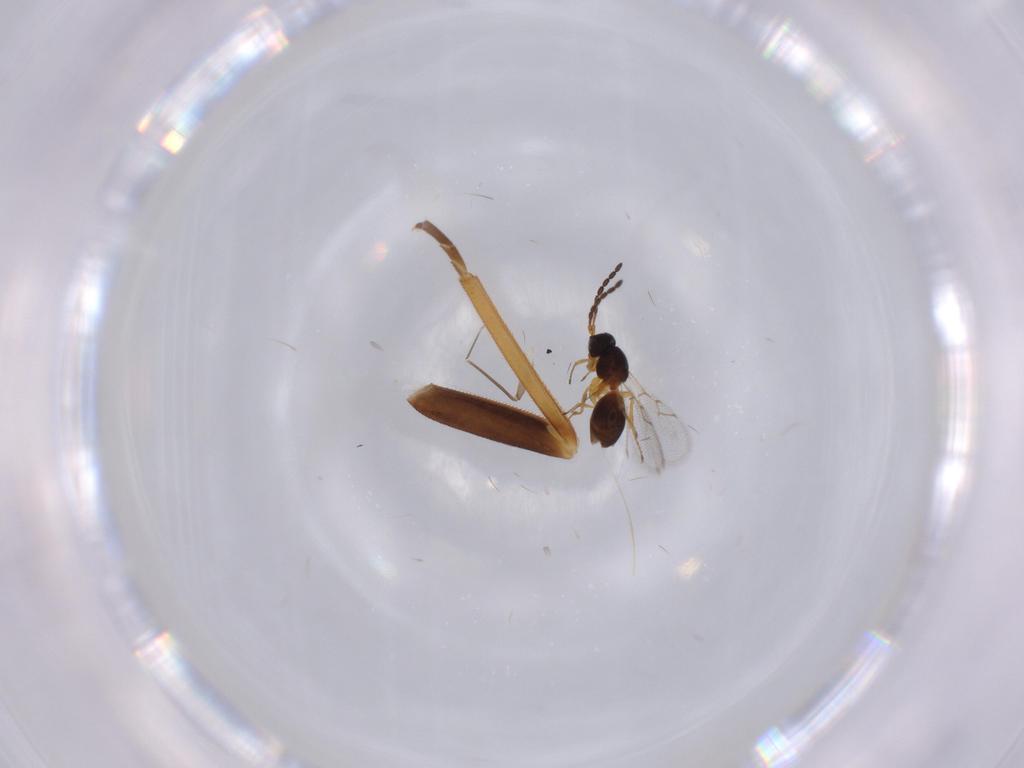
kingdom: Animalia
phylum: Arthropoda
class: Insecta
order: Hymenoptera
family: Figitidae
